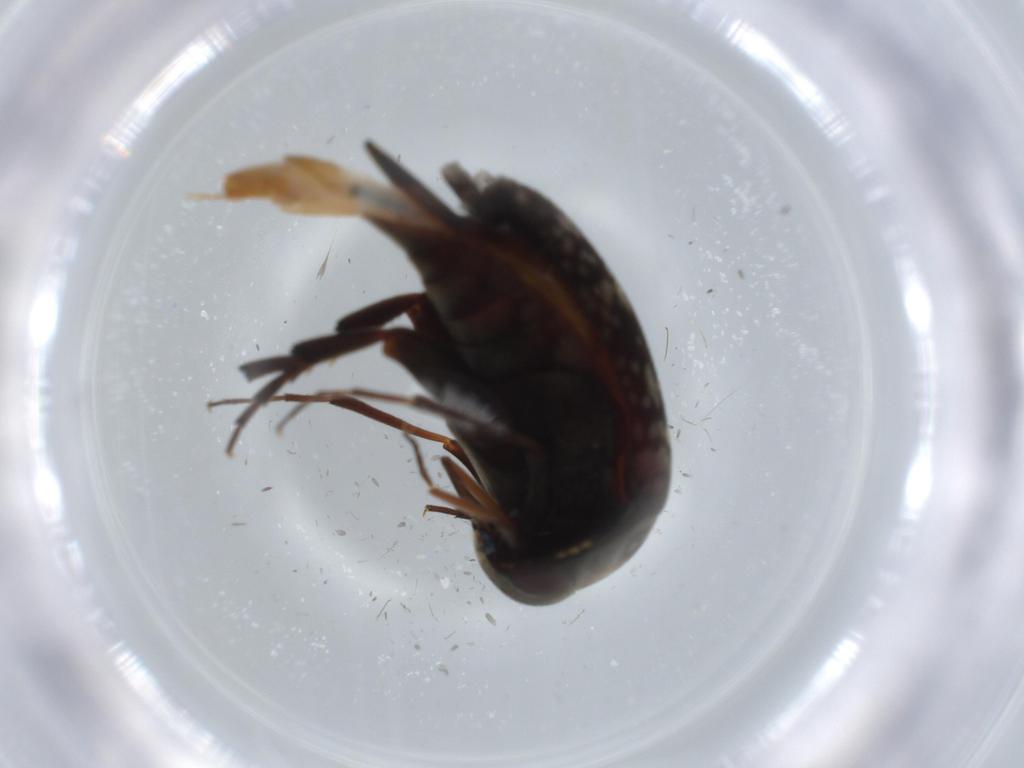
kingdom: Animalia
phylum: Arthropoda
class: Insecta
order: Coleoptera
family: Chrysomelidae
